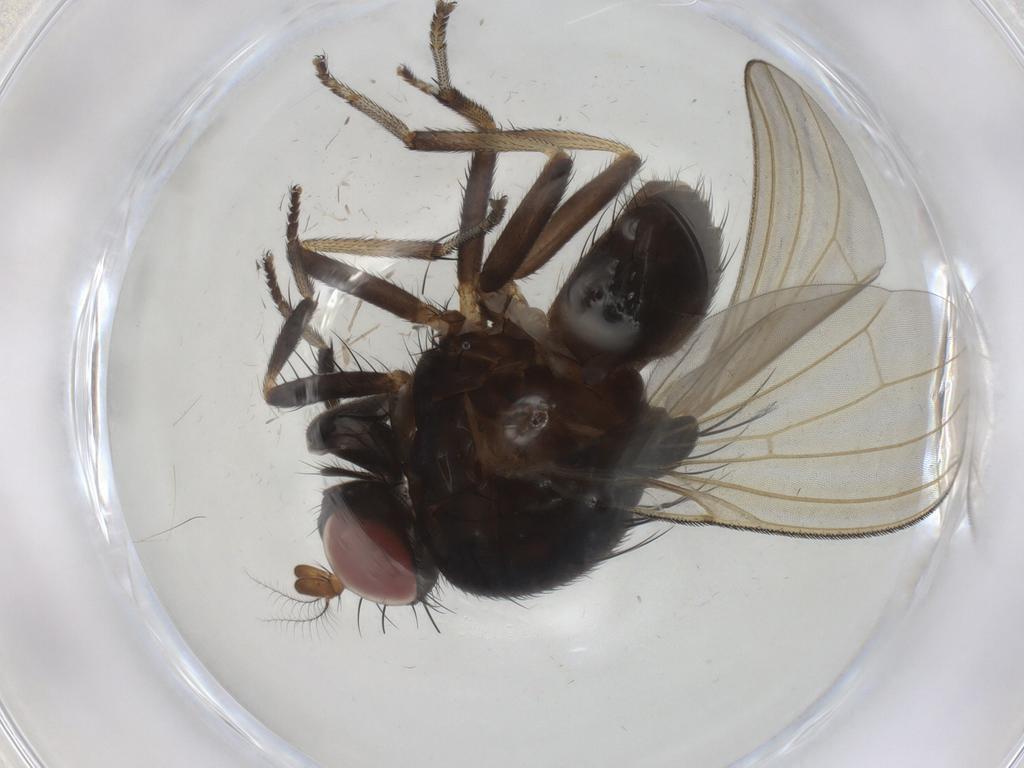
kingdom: Animalia
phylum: Arthropoda
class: Insecta
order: Diptera
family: Lauxaniidae
